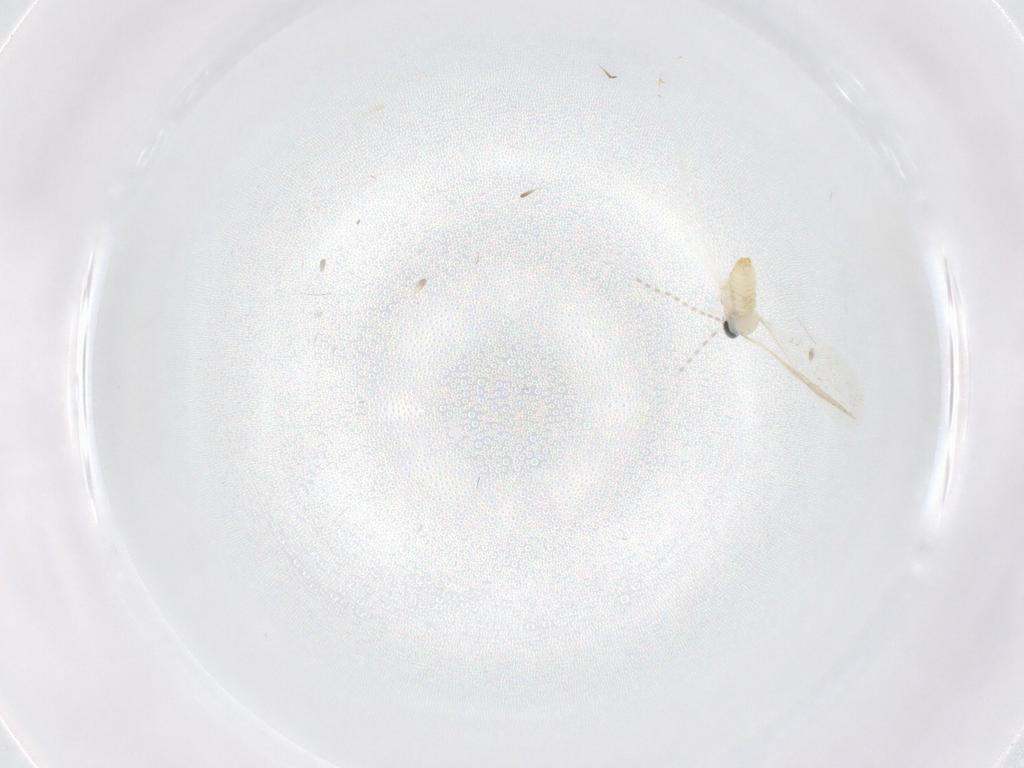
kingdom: Animalia
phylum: Arthropoda
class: Insecta
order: Diptera
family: Cecidomyiidae
